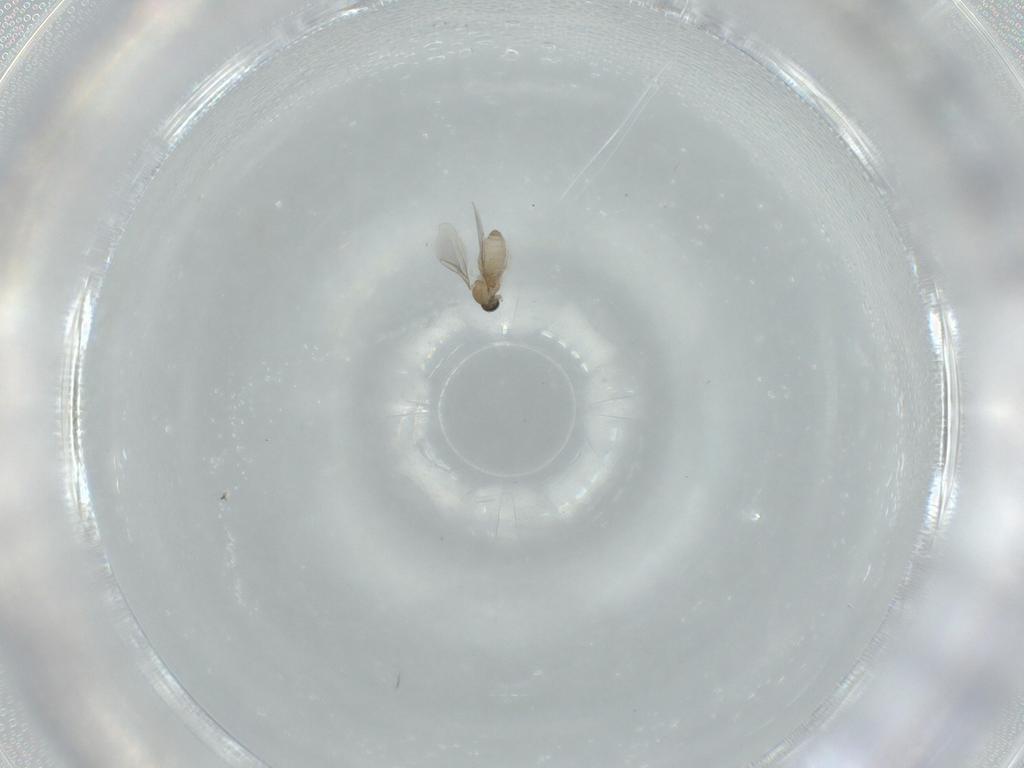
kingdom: Animalia
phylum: Arthropoda
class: Insecta
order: Diptera
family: Cecidomyiidae
